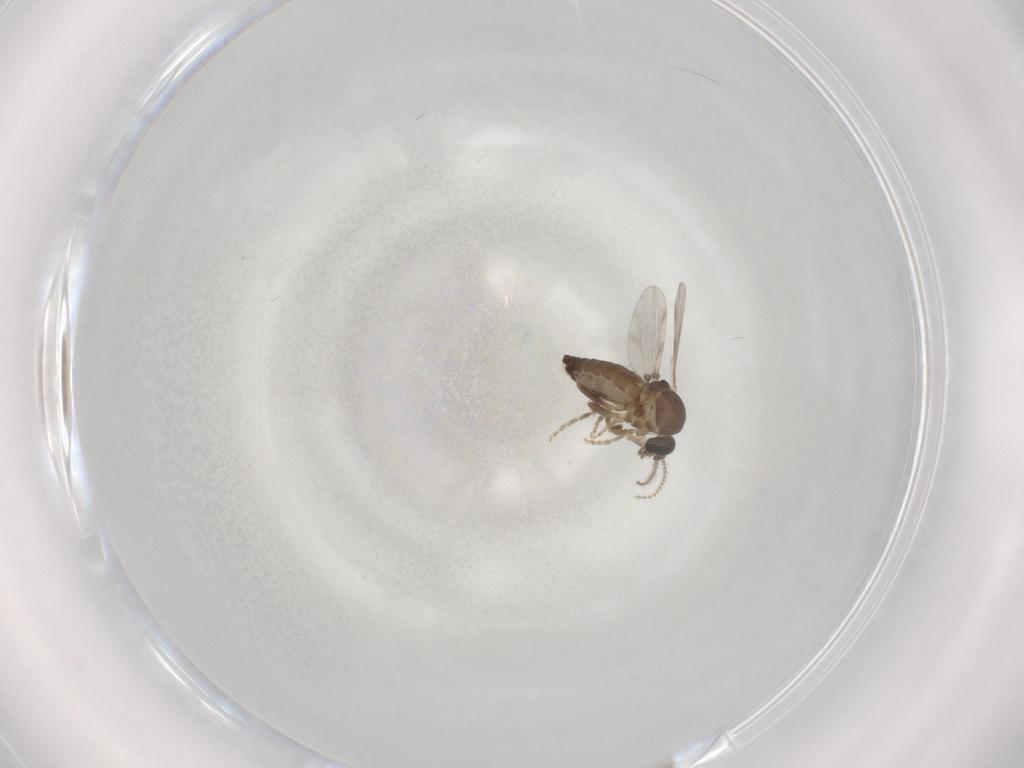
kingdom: Animalia
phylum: Arthropoda
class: Insecta
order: Diptera
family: Ceratopogonidae
